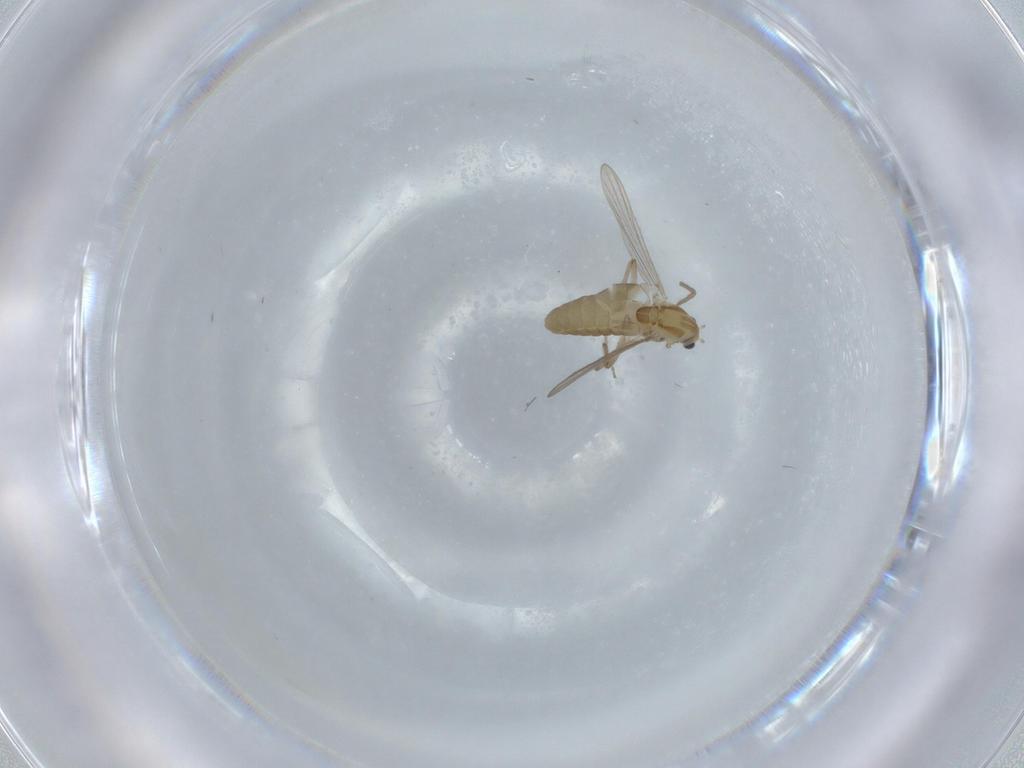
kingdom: Animalia
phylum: Arthropoda
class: Insecta
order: Diptera
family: Chironomidae
